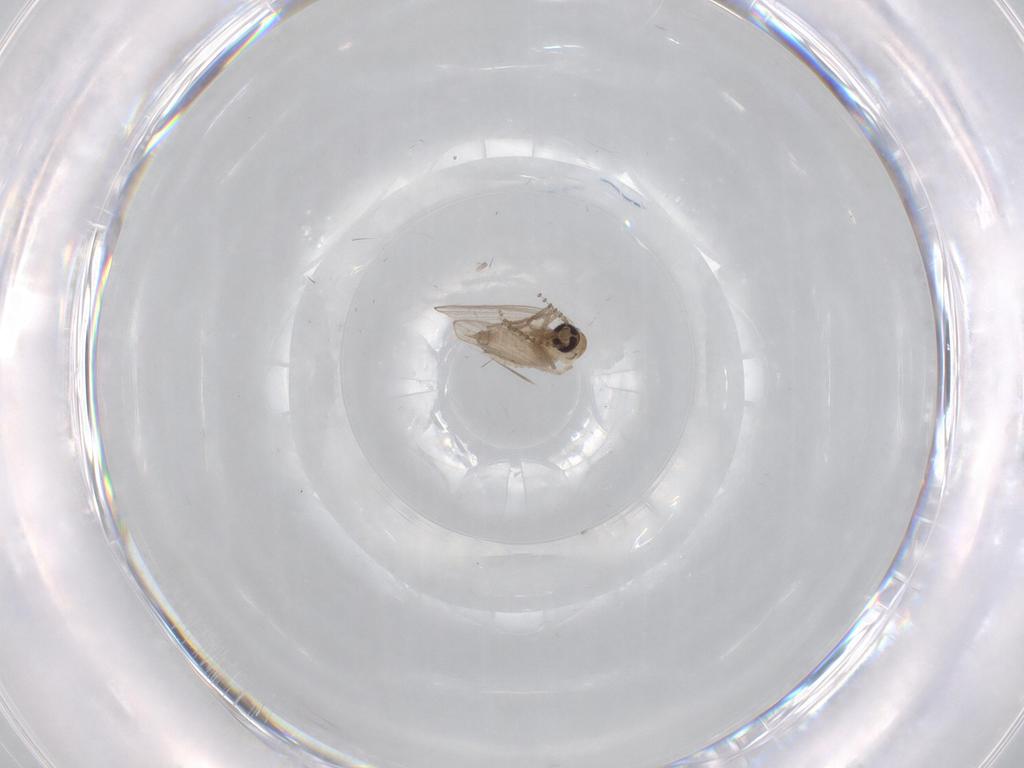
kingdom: Animalia
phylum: Arthropoda
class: Insecta
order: Diptera
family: Psychodidae
